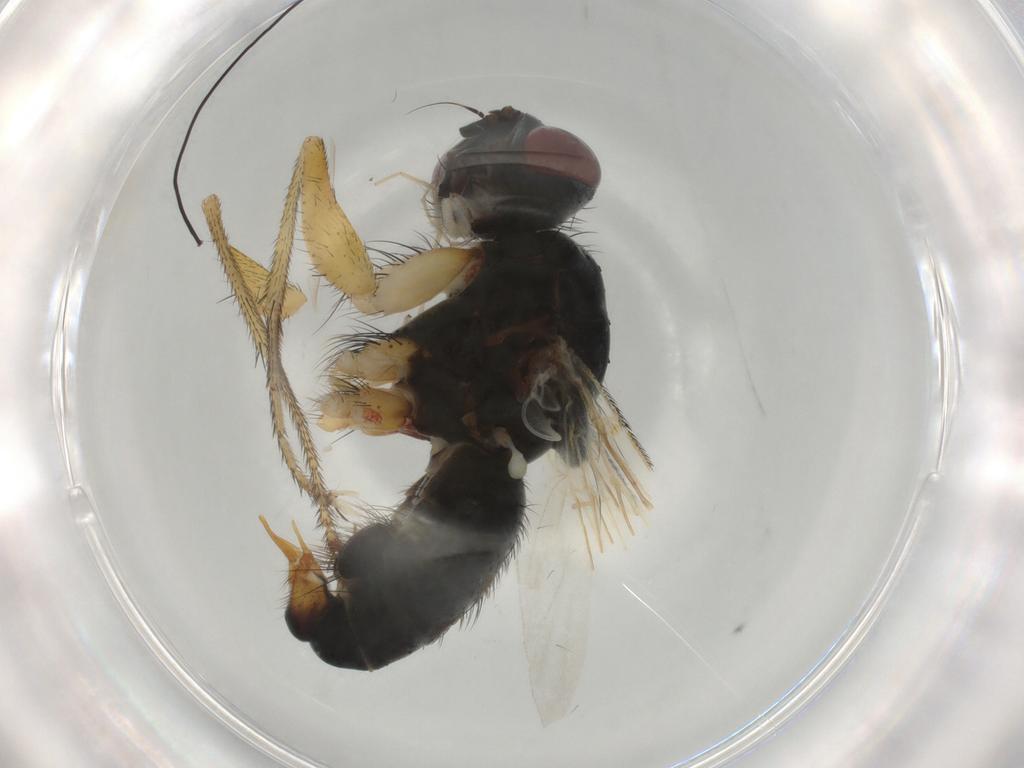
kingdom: Animalia
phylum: Arthropoda
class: Insecta
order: Diptera
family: Muscidae
